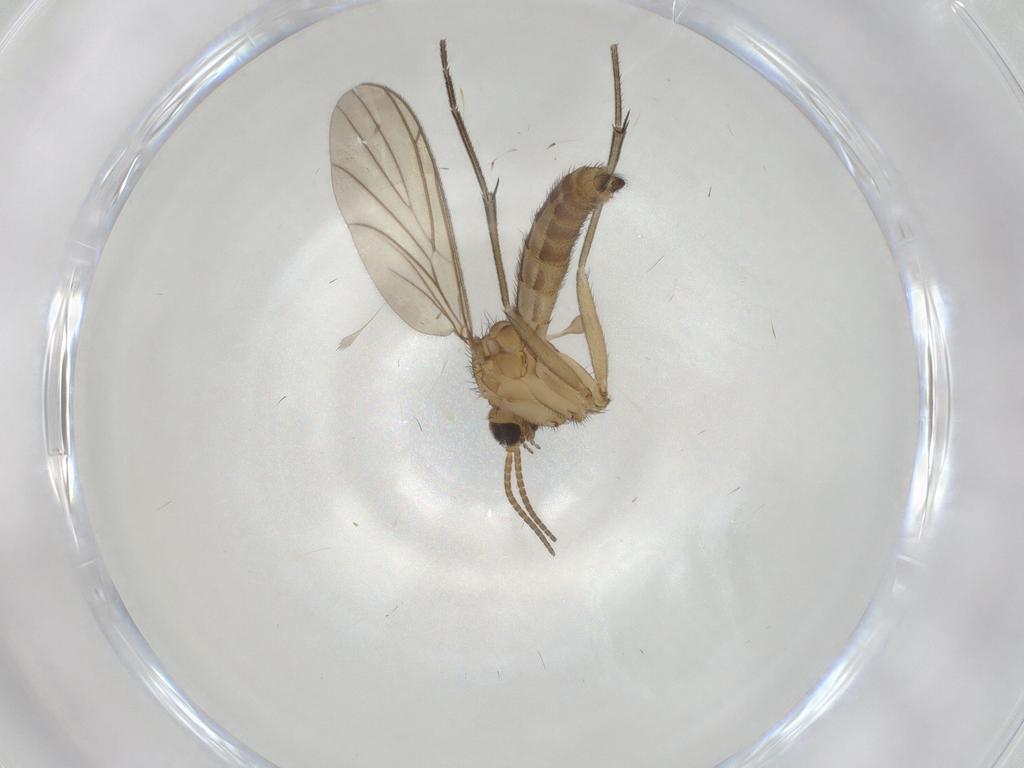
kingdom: Animalia
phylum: Arthropoda
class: Insecta
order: Diptera
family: Keroplatidae
